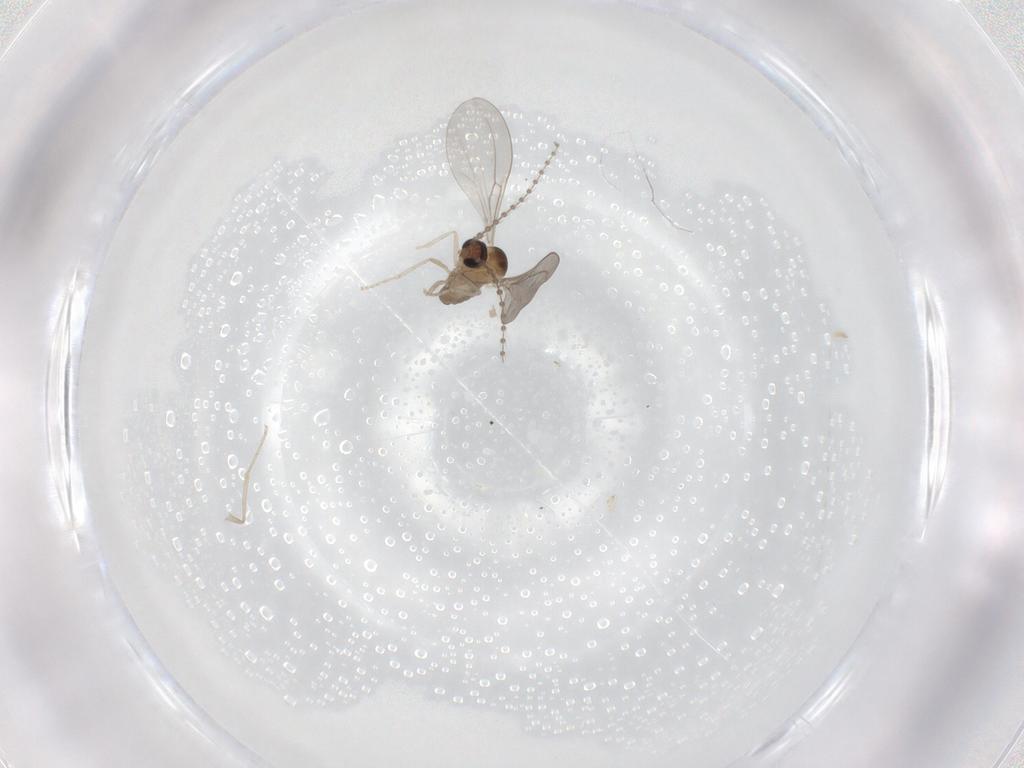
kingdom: Animalia
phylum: Arthropoda
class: Insecta
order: Diptera
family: Cecidomyiidae
